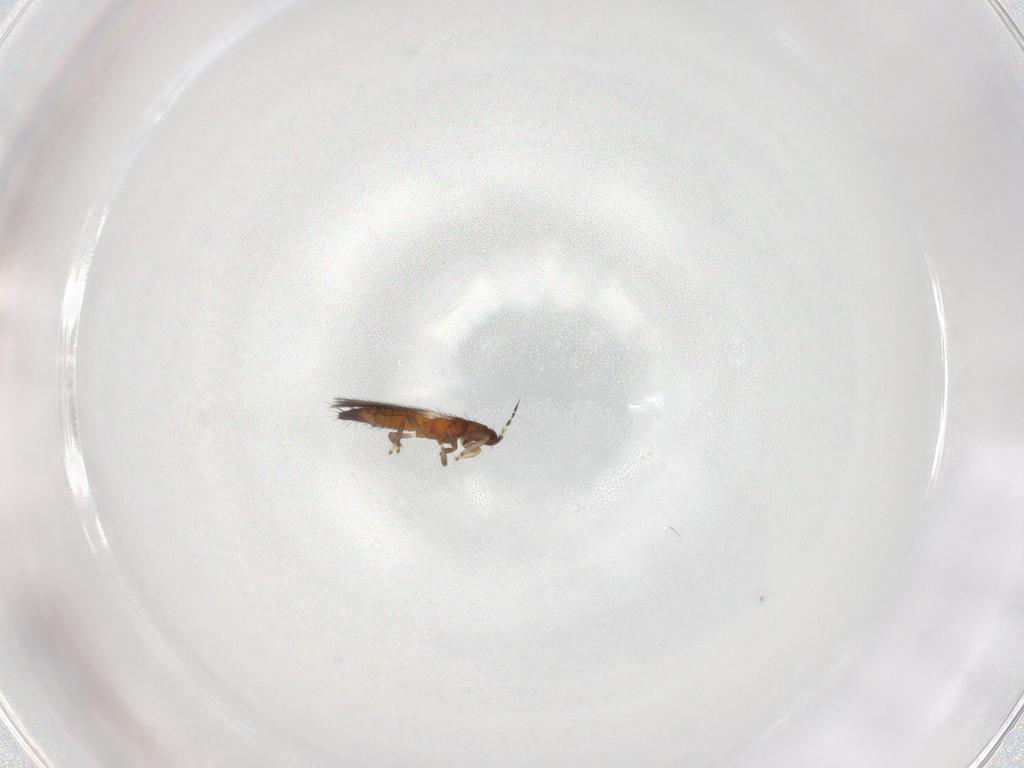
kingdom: Animalia
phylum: Arthropoda
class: Insecta
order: Thysanoptera
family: Thripidae
